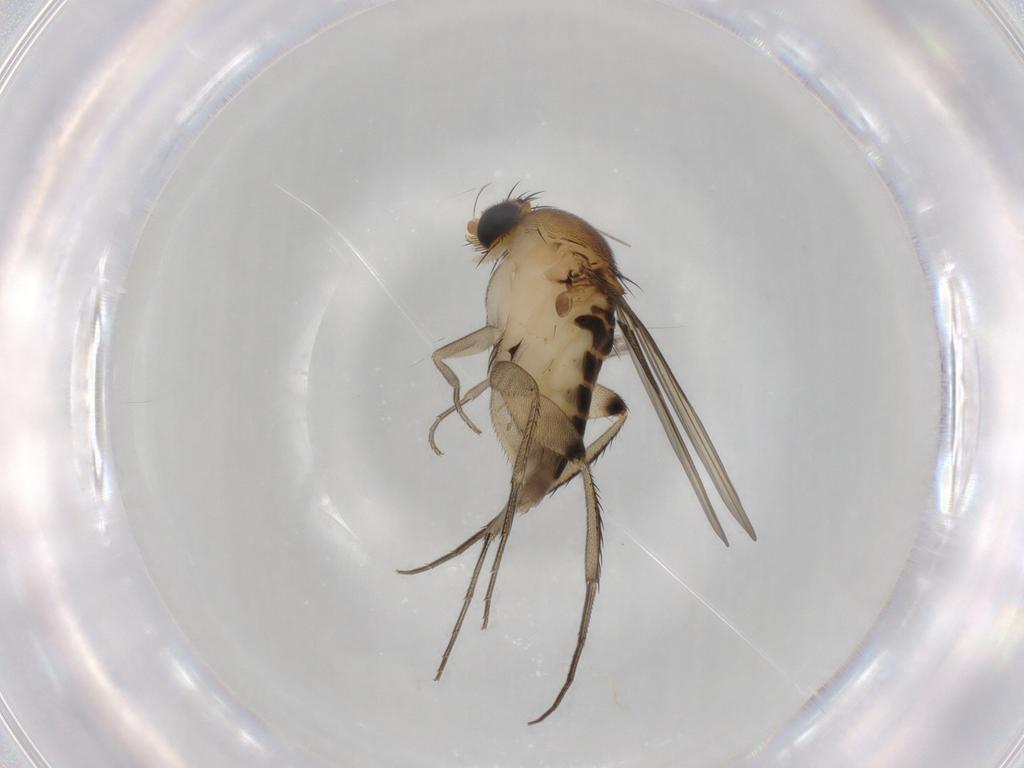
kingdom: Animalia
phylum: Arthropoda
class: Insecta
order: Diptera
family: Phoridae
